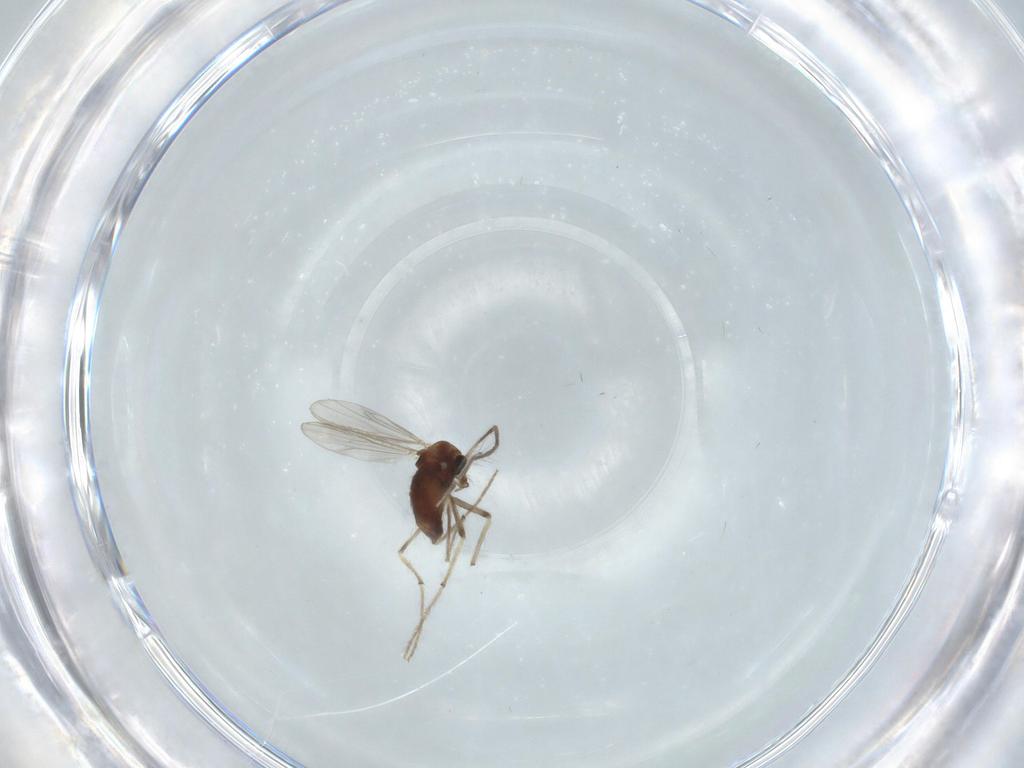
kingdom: Animalia
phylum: Arthropoda
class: Insecta
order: Diptera
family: Chironomidae
